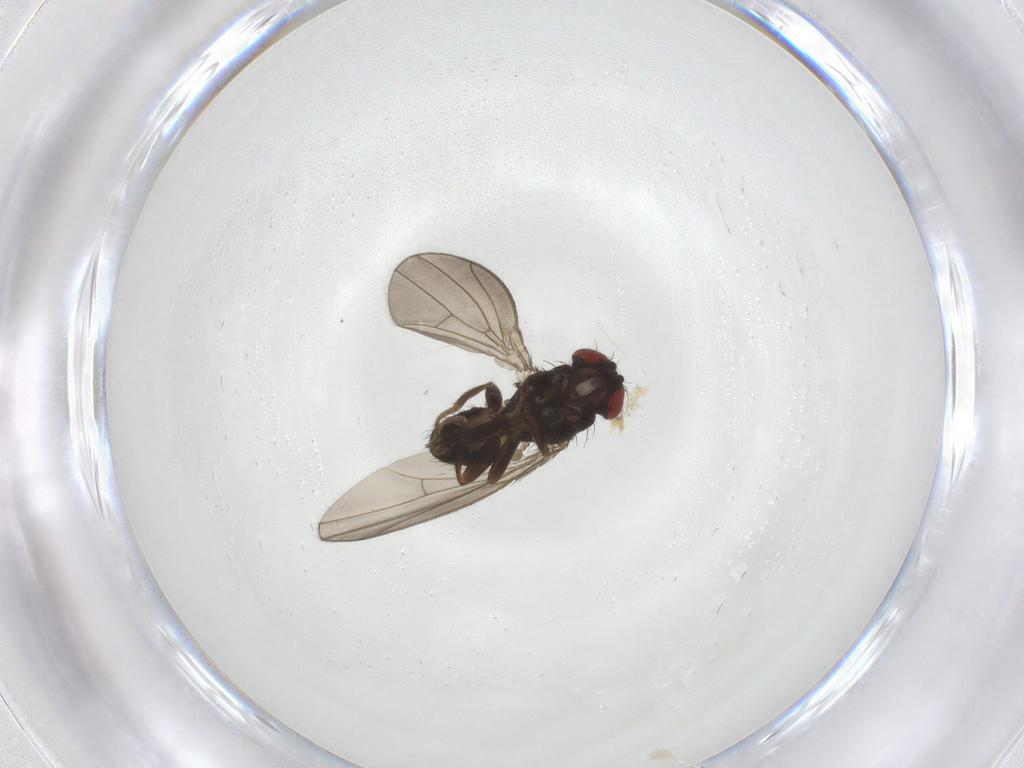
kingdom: Animalia
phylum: Arthropoda
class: Insecta
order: Diptera
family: Drosophilidae
